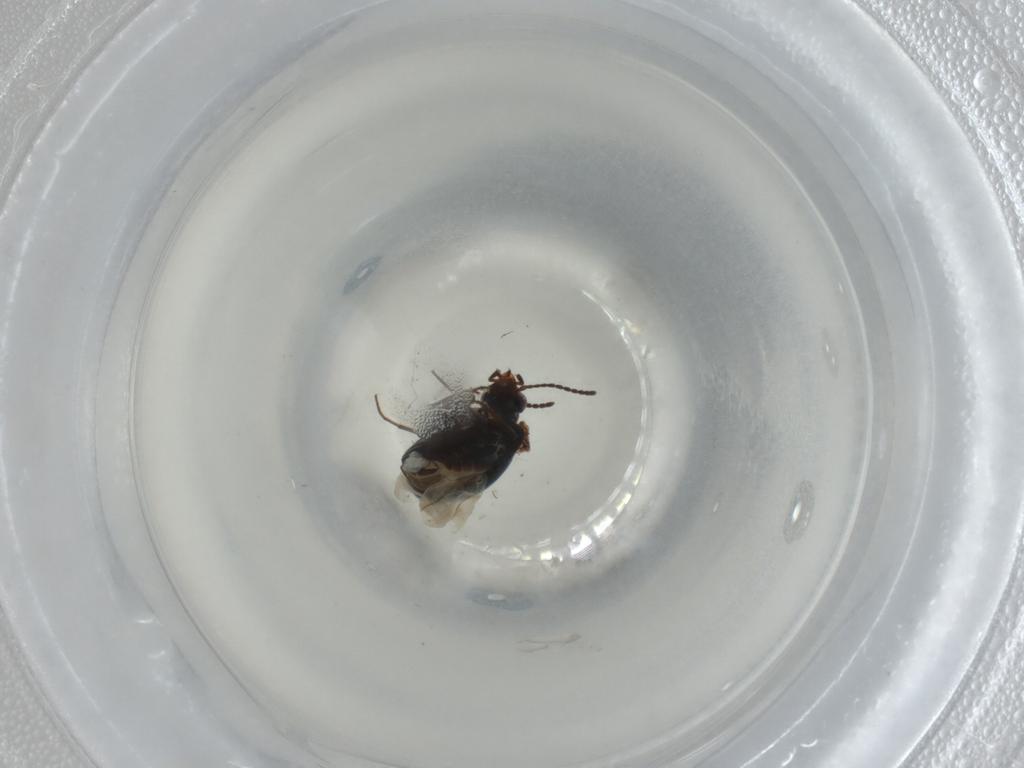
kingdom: Animalia
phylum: Arthropoda
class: Insecta
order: Coleoptera
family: Carabidae
